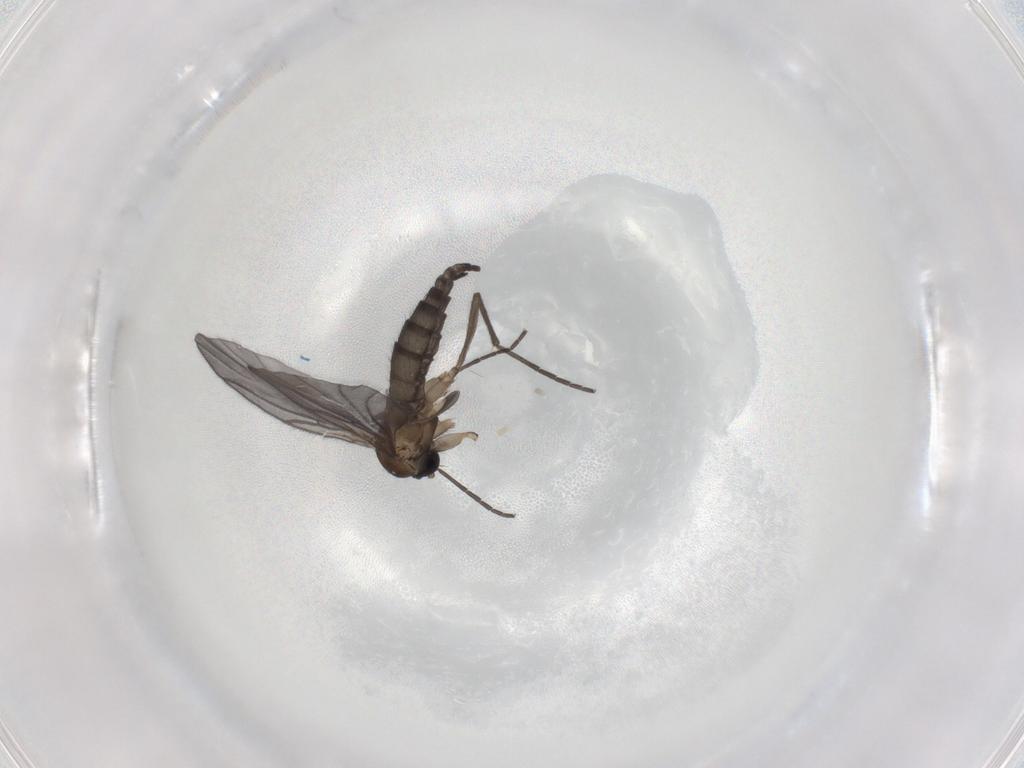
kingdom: Animalia
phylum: Arthropoda
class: Insecta
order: Diptera
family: Sciaridae
